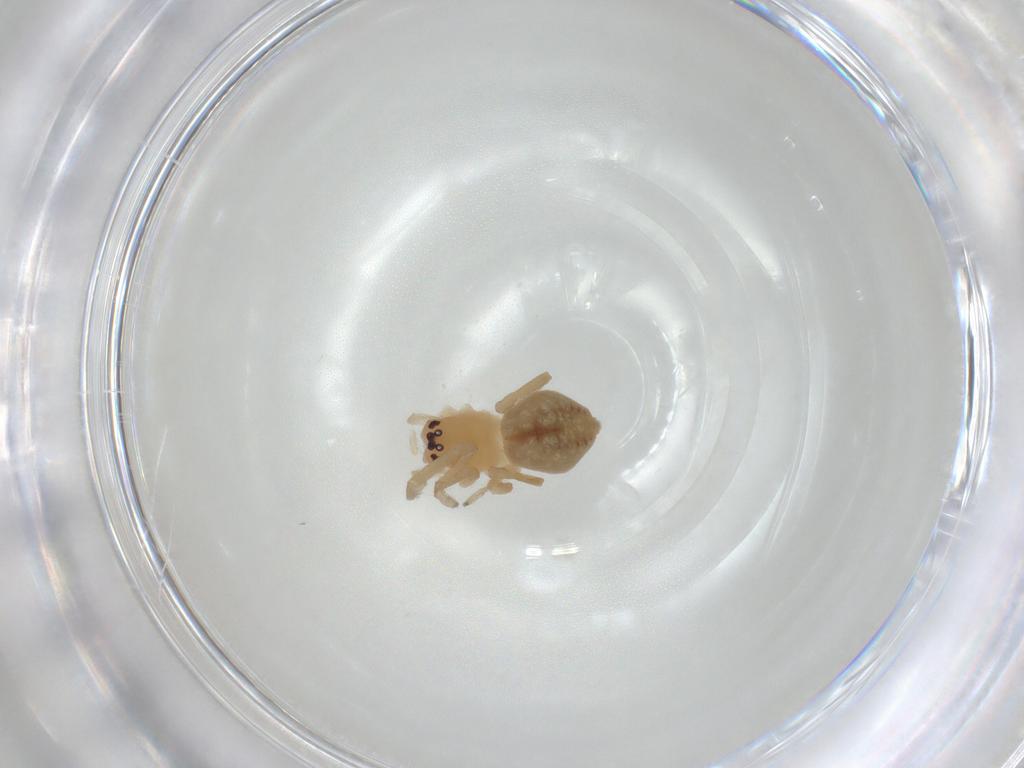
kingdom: Animalia
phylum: Arthropoda
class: Arachnida
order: Araneae
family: Cheiracanthiidae
